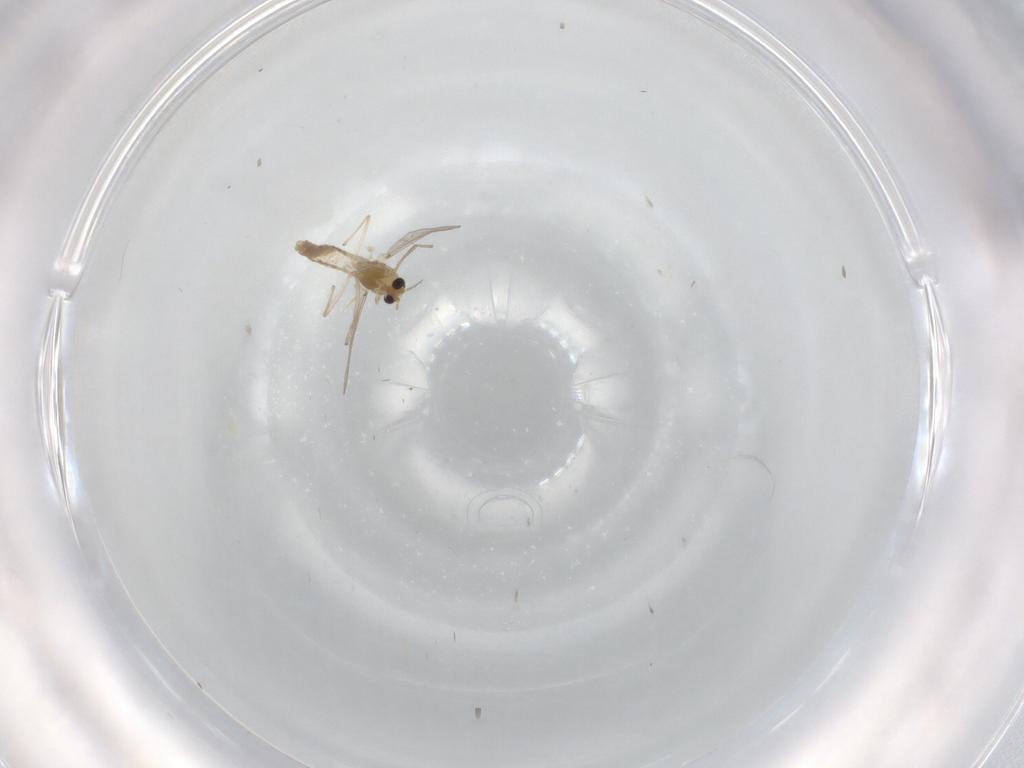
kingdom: Animalia
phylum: Arthropoda
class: Insecta
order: Diptera
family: Chironomidae
